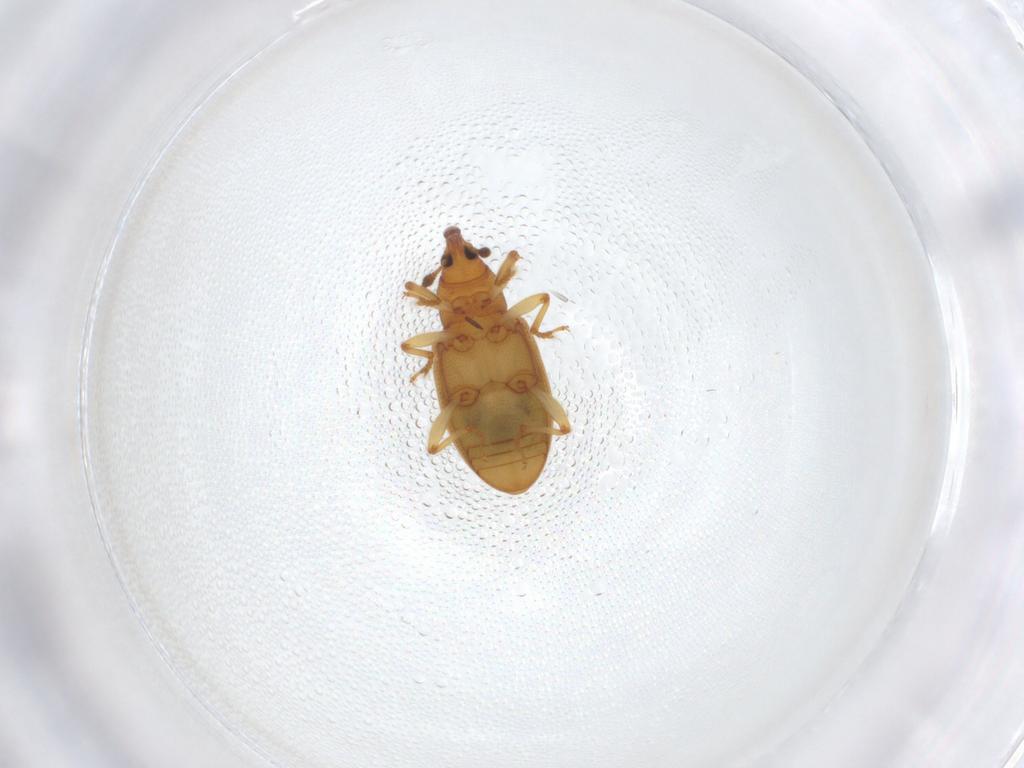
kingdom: Animalia
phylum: Arthropoda
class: Insecta
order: Coleoptera
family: Curculionidae
